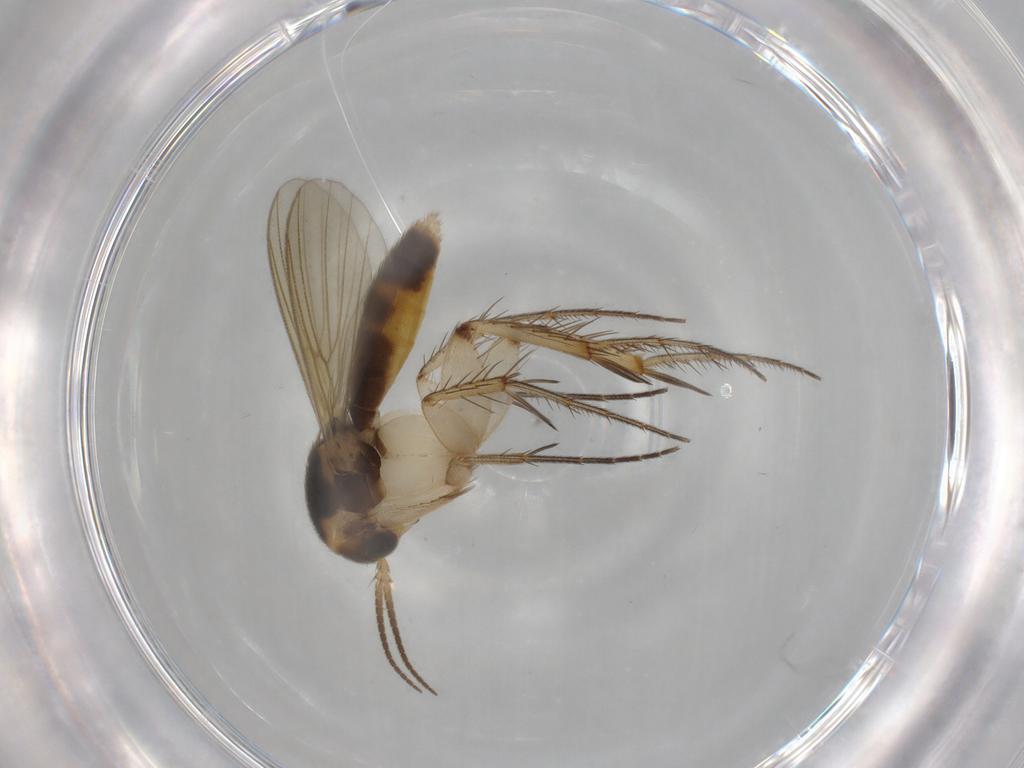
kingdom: Animalia
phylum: Arthropoda
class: Insecta
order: Diptera
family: Mycetophilidae
